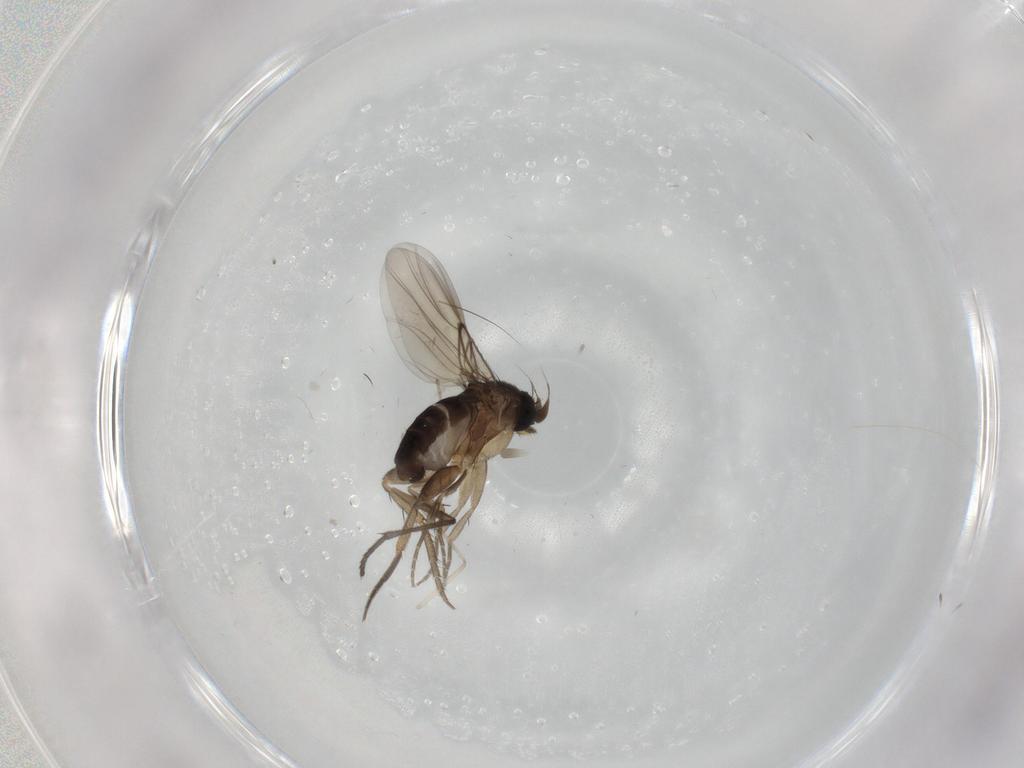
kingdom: Animalia
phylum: Arthropoda
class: Insecta
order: Diptera
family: Phoridae
